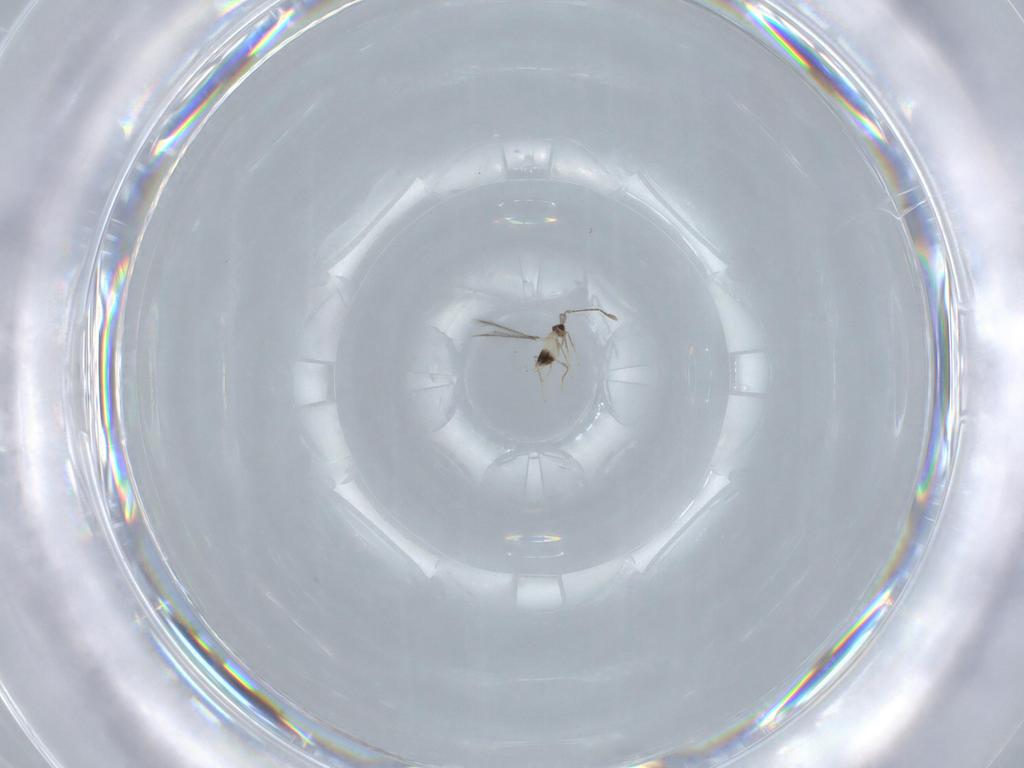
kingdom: Animalia
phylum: Arthropoda
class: Insecta
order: Hymenoptera
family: Mymaridae
